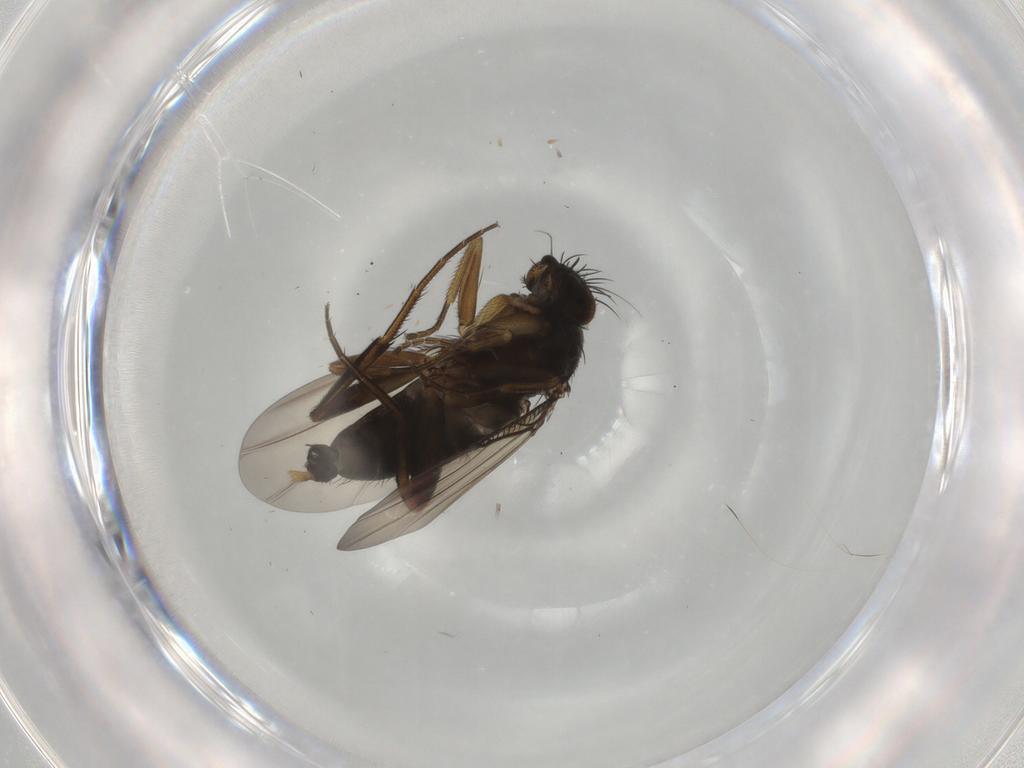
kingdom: Animalia
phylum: Arthropoda
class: Insecta
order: Diptera
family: Phoridae
